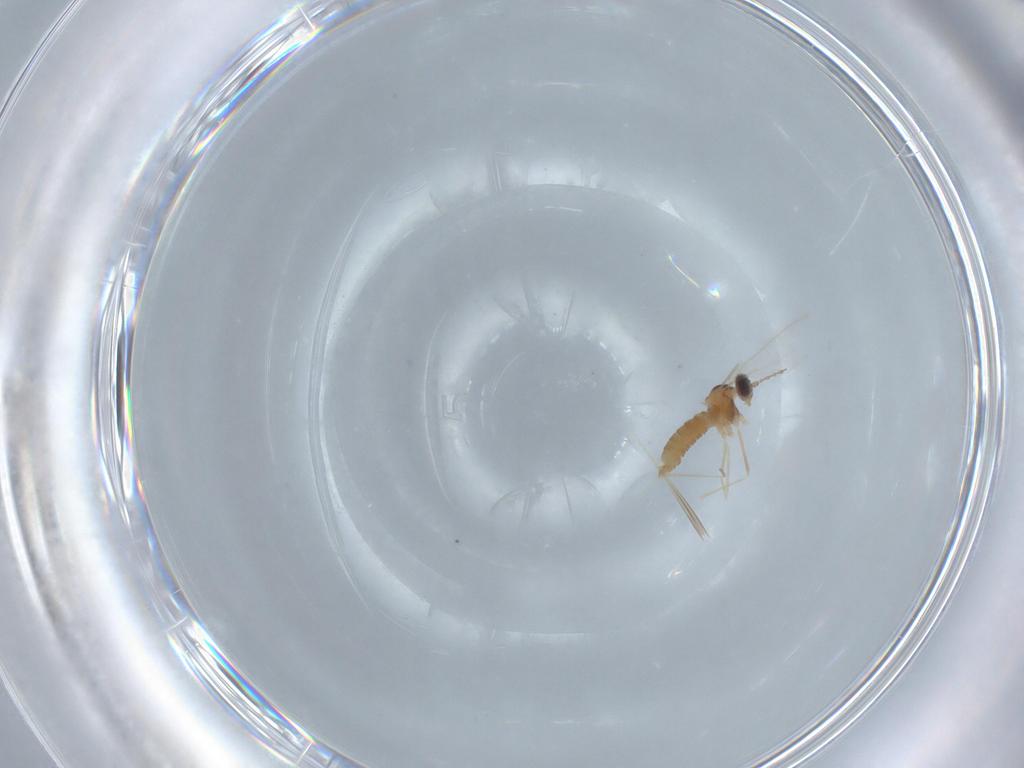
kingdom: Animalia
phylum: Arthropoda
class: Insecta
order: Diptera
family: Cecidomyiidae
